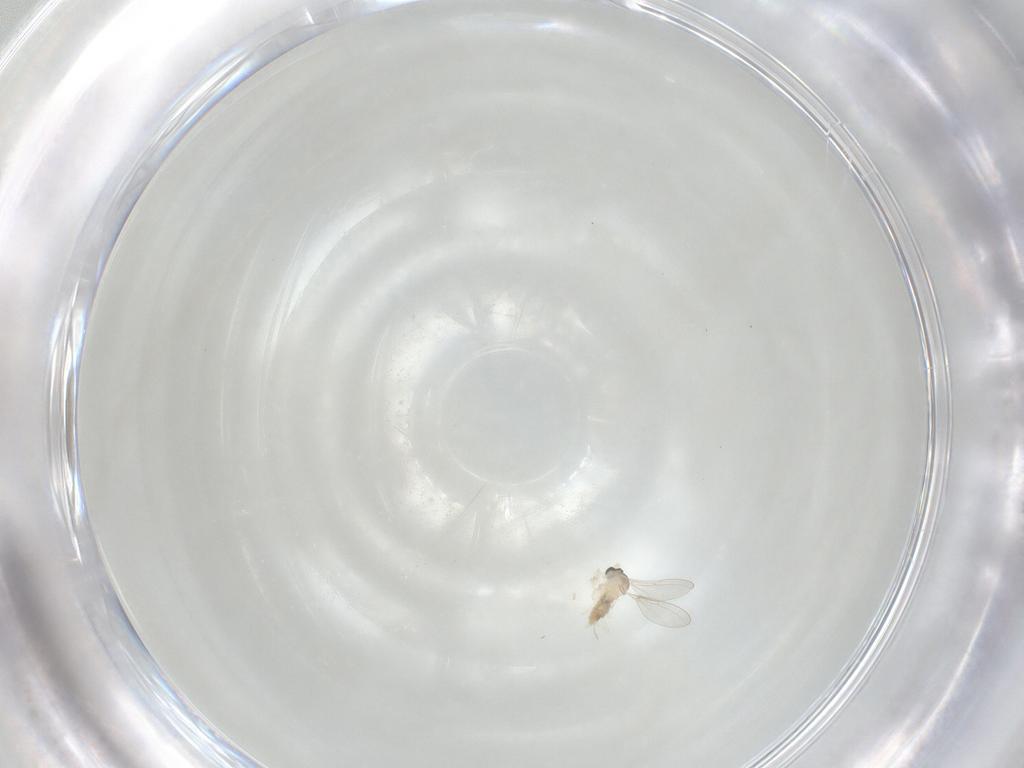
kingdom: Animalia
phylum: Arthropoda
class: Insecta
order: Diptera
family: Cecidomyiidae
